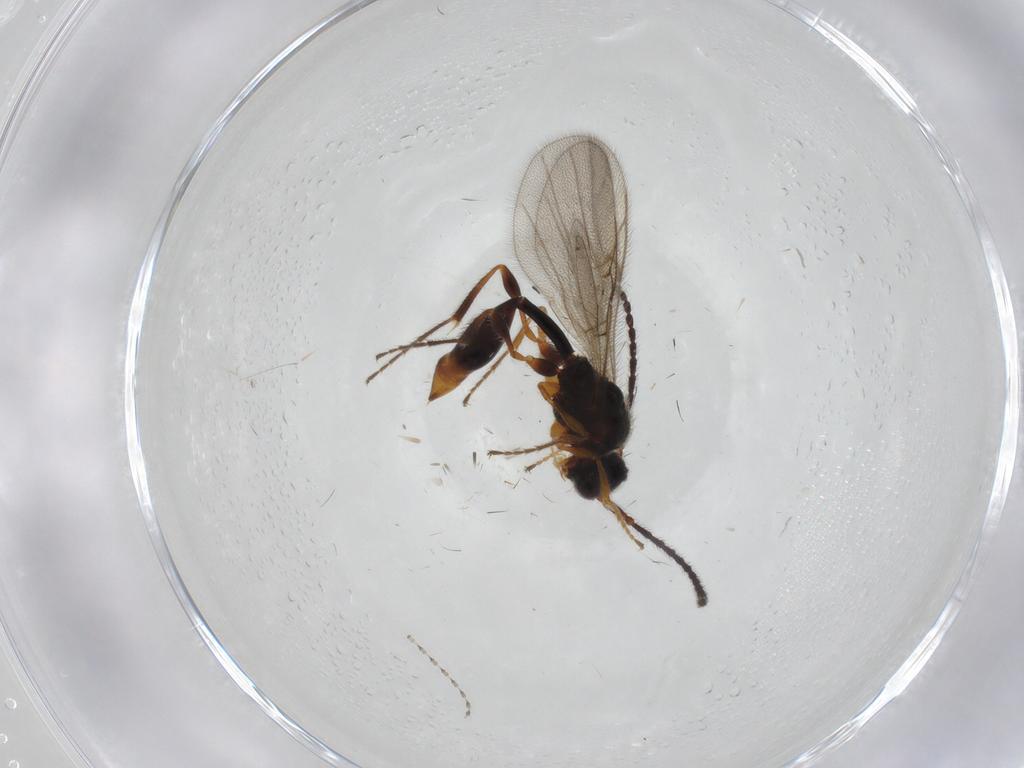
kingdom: Animalia
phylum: Arthropoda
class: Insecta
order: Hymenoptera
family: Diapriidae
